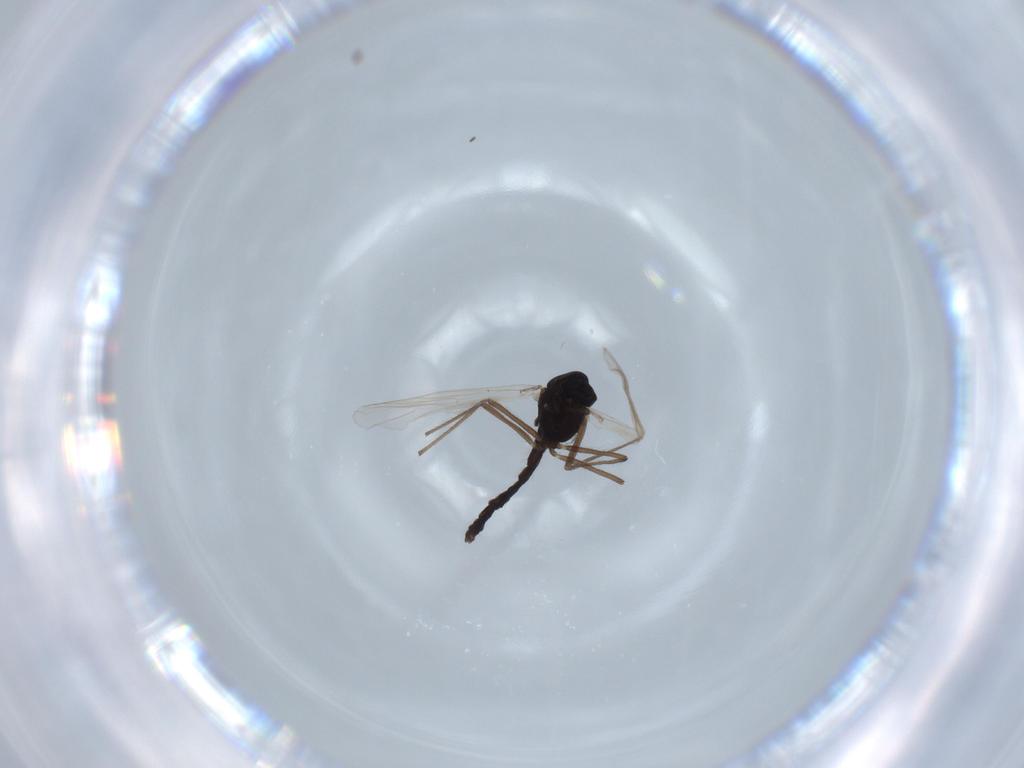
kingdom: Animalia
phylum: Arthropoda
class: Insecta
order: Diptera
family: Chironomidae
